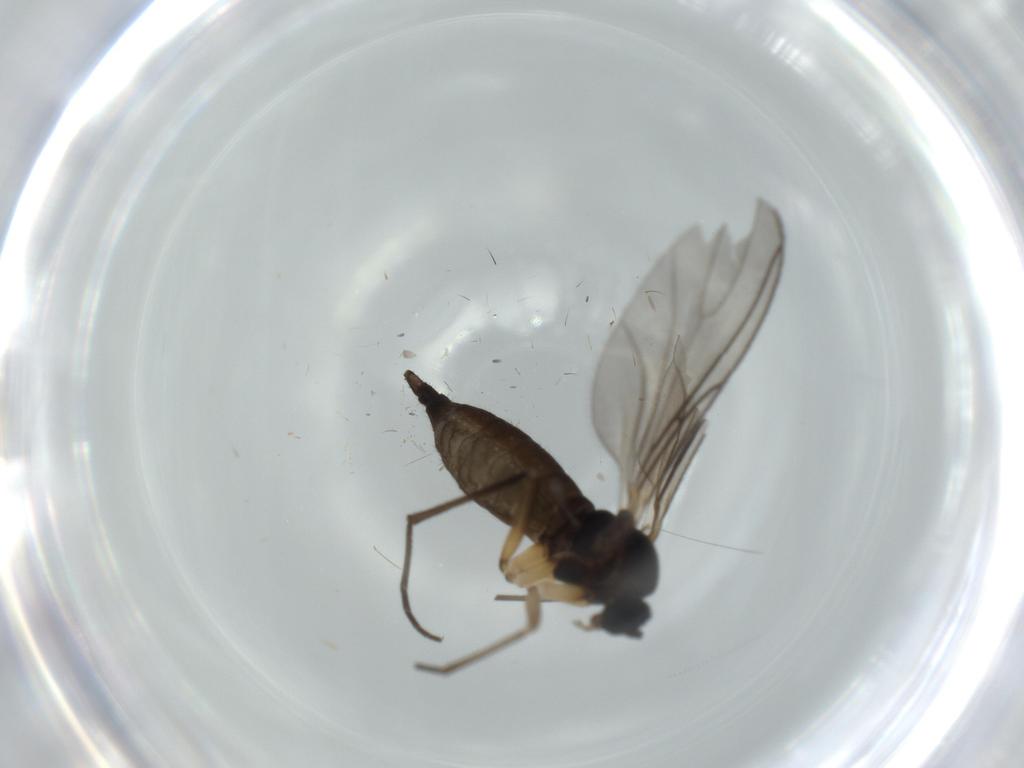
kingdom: Animalia
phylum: Arthropoda
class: Insecta
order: Diptera
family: Sciaridae
